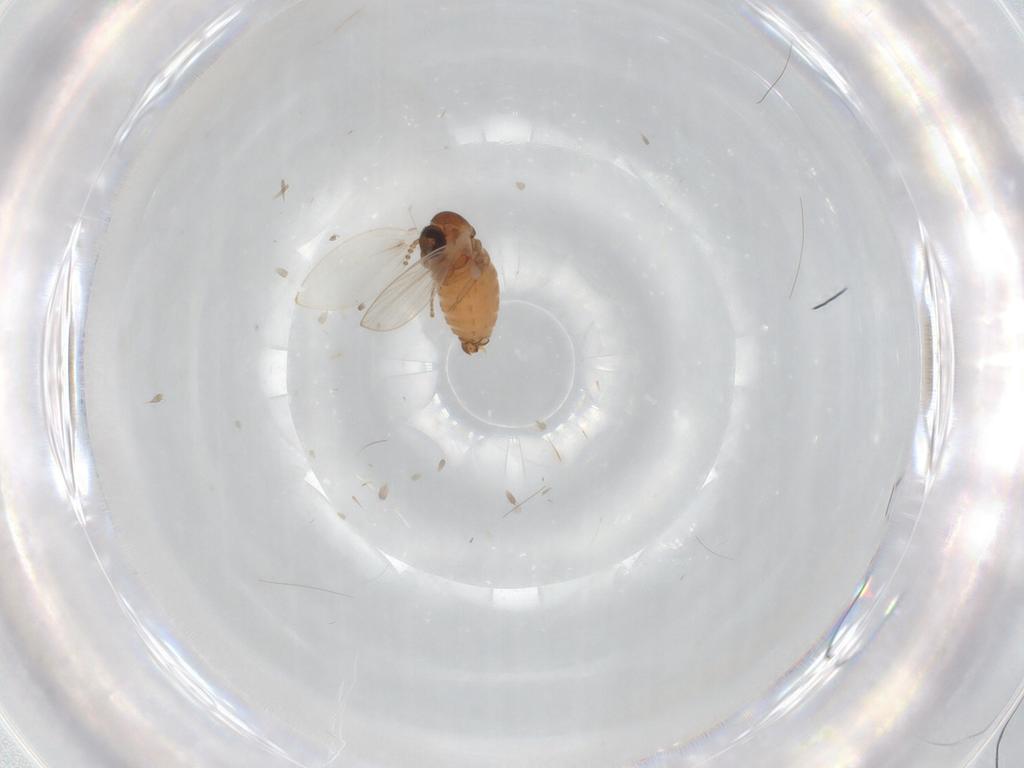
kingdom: Animalia
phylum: Arthropoda
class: Insecta
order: Diptera
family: Psychodidae
